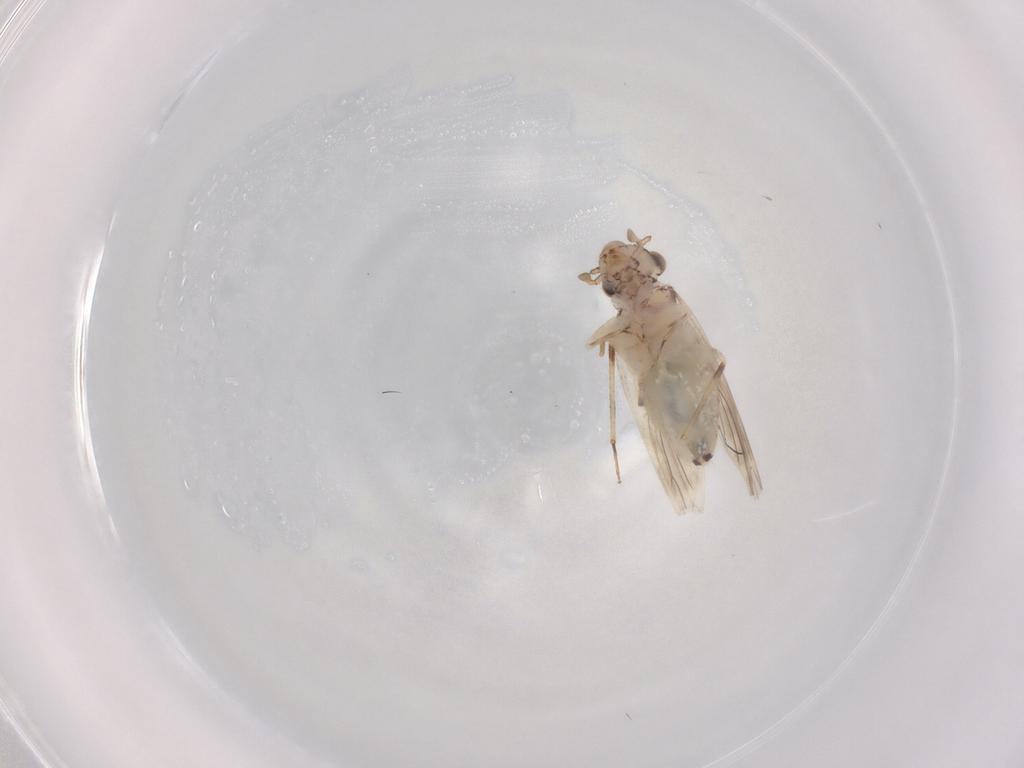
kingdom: Animalia
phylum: Arthropoda
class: Insecta
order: Psocodea
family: Lepidopsocidae
